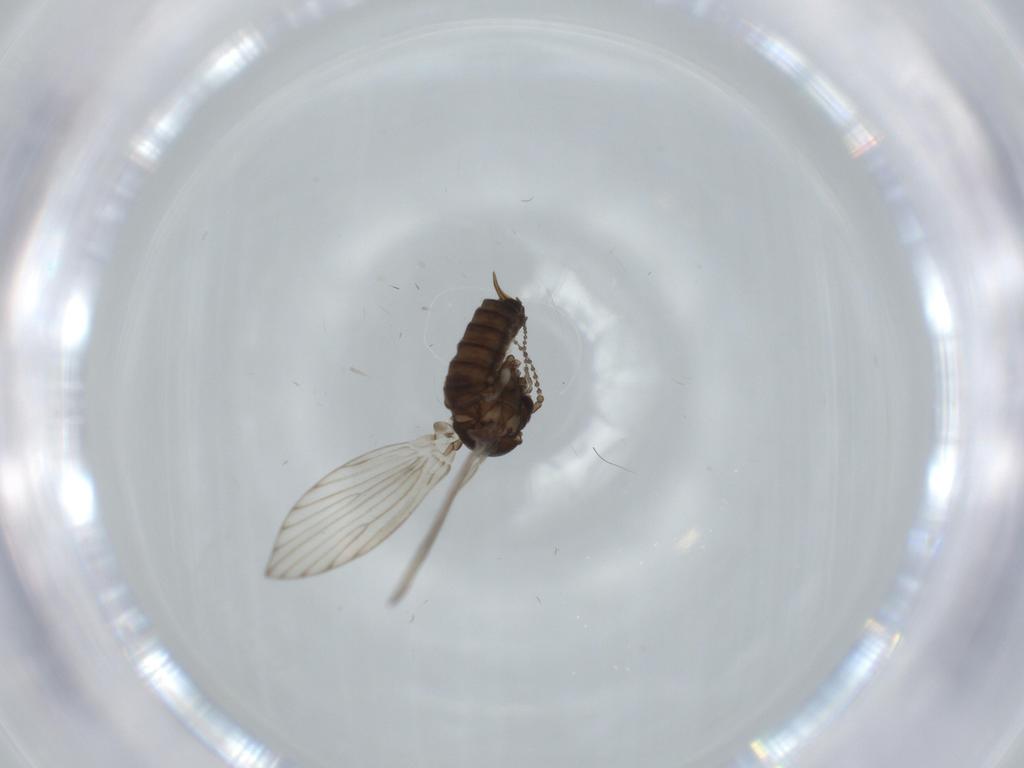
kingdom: Animalia
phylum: Arthropoda
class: Insecta
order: Diptera
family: Psychodidae
